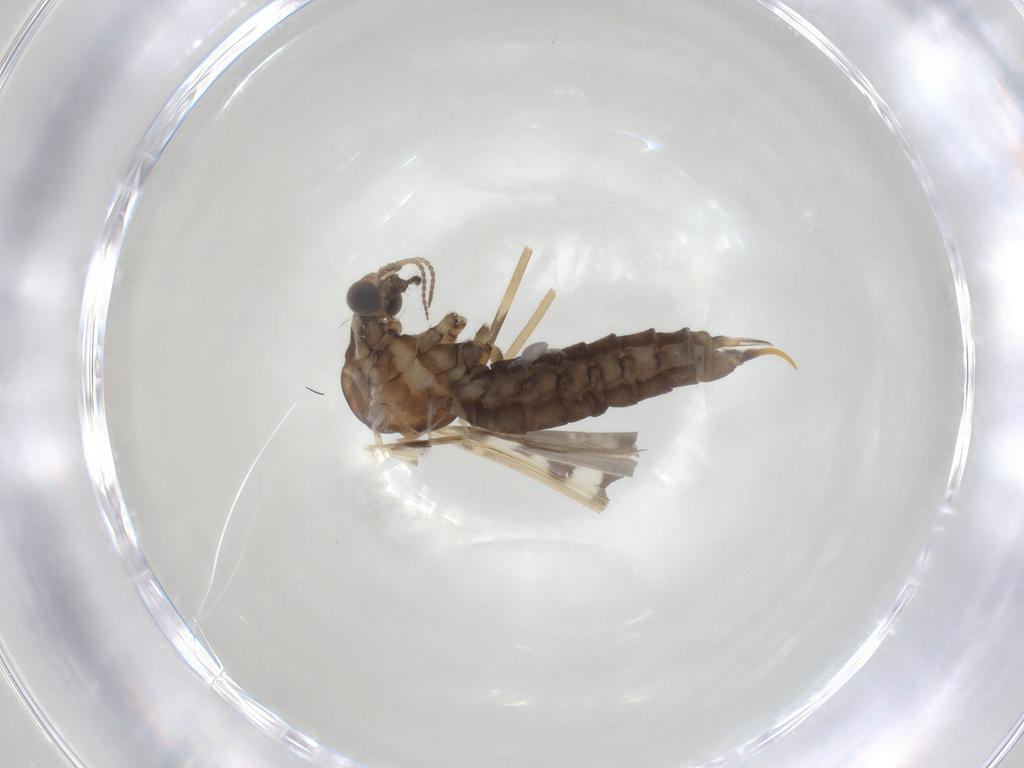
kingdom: Animalia
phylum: Arthropoda
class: Insecta
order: Diptera
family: Limoniidae
